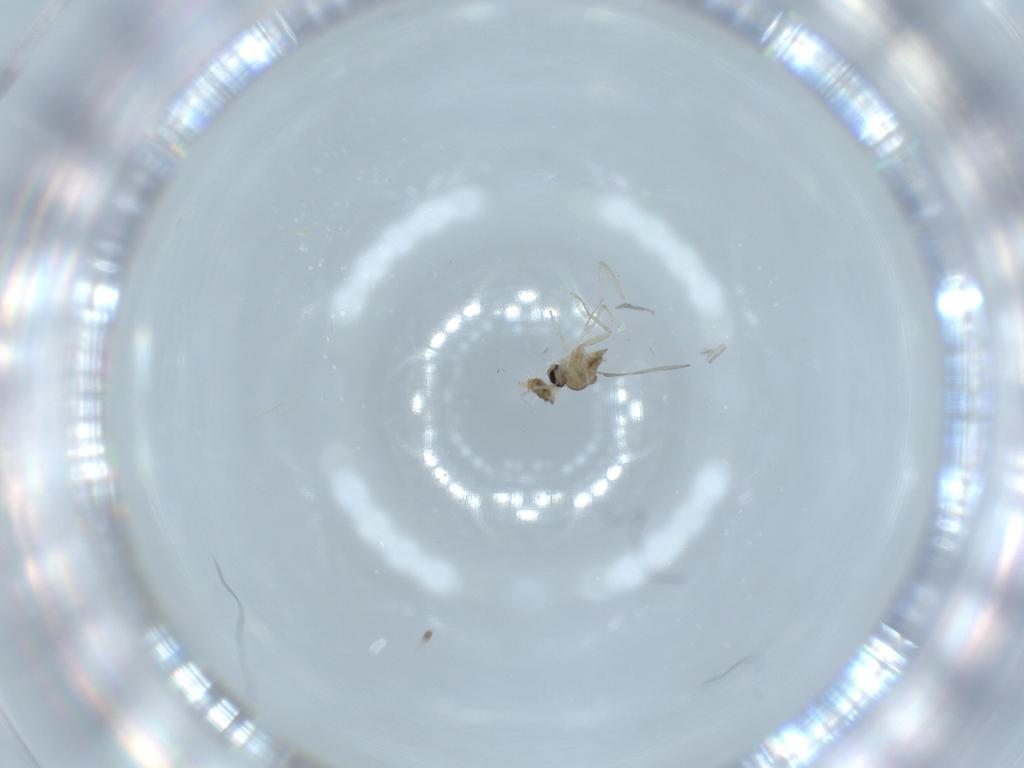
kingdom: Animalia
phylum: Arthropoda
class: Insecta
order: Diptera
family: Cecidomyiidae
